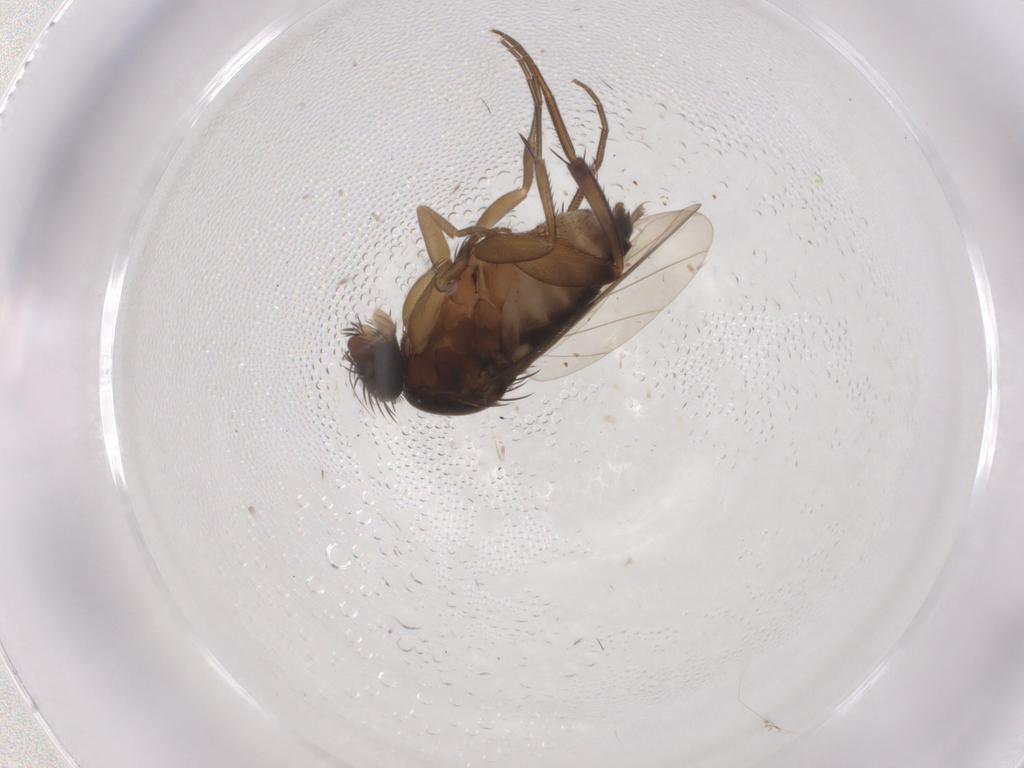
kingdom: Animalia
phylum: Arthropoda
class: Insecta
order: Diptera
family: Phoridae
